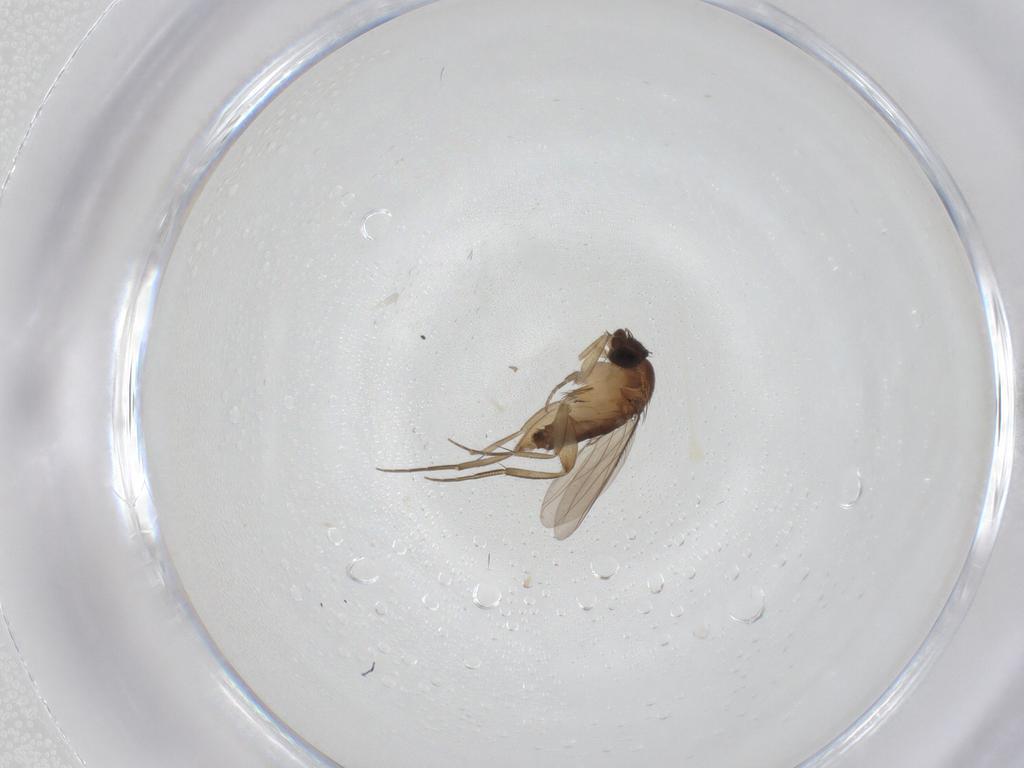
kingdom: Animalia
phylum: Arthropoda
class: Insecta
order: Diptera
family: Phoridae
